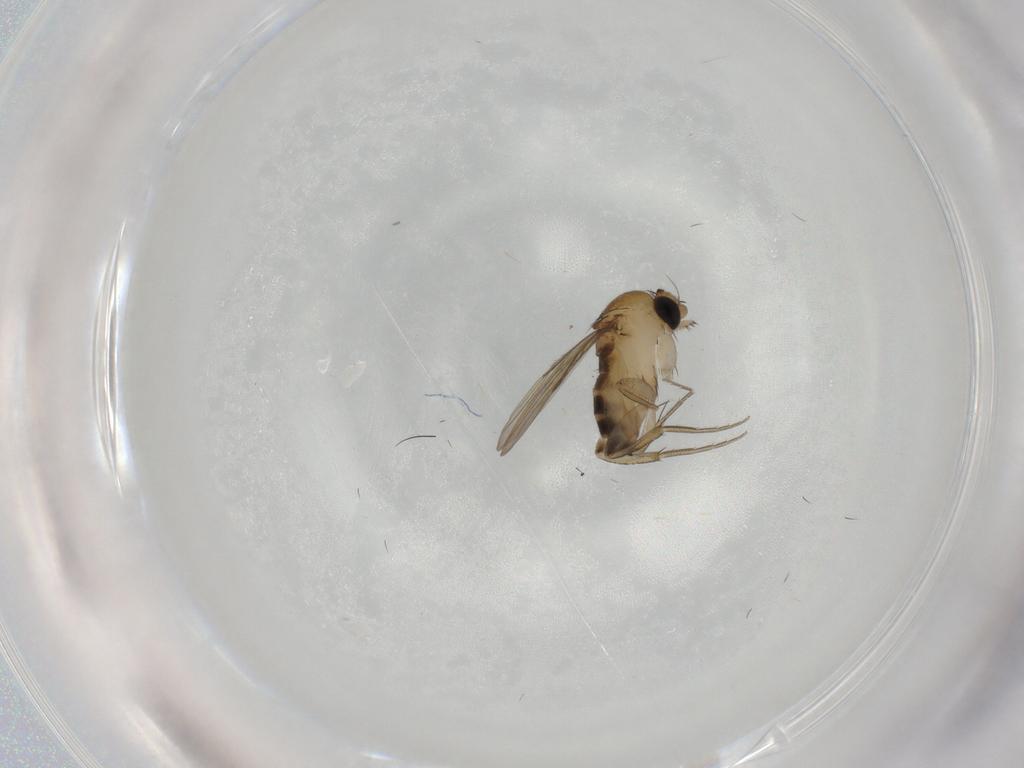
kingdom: Animalia
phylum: Arthropoda
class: Insecta
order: Diptera
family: Phoridae
